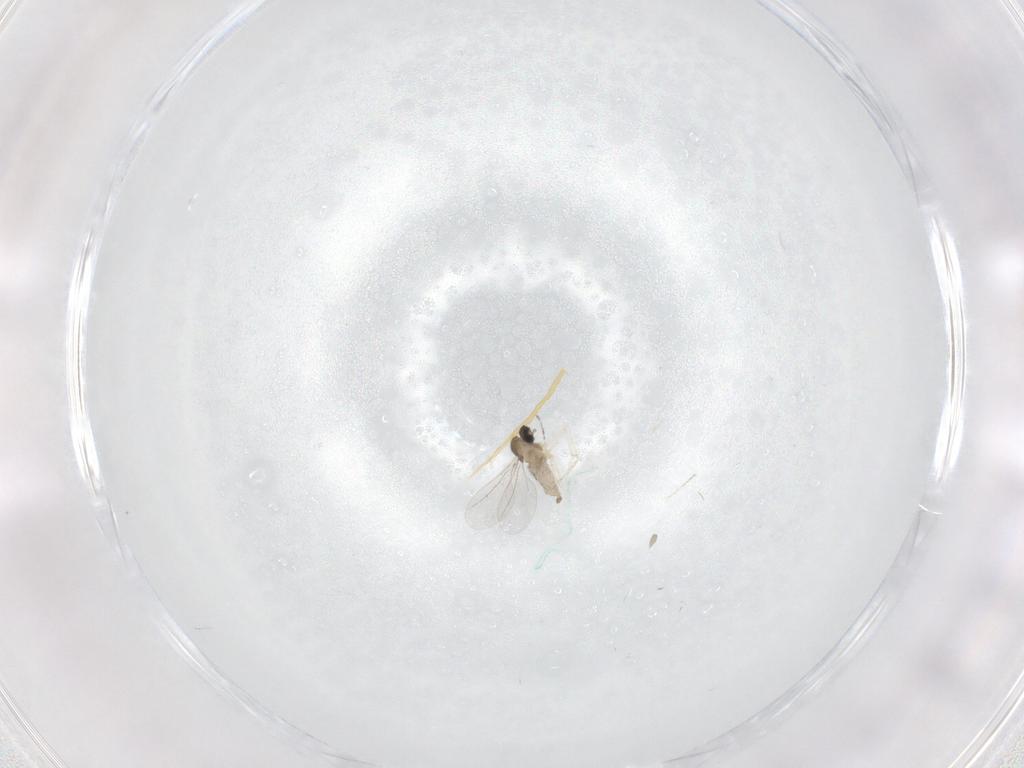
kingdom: Animalia
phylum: Arthropoda
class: Insecta
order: Diptera
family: Cecidomyiidae
